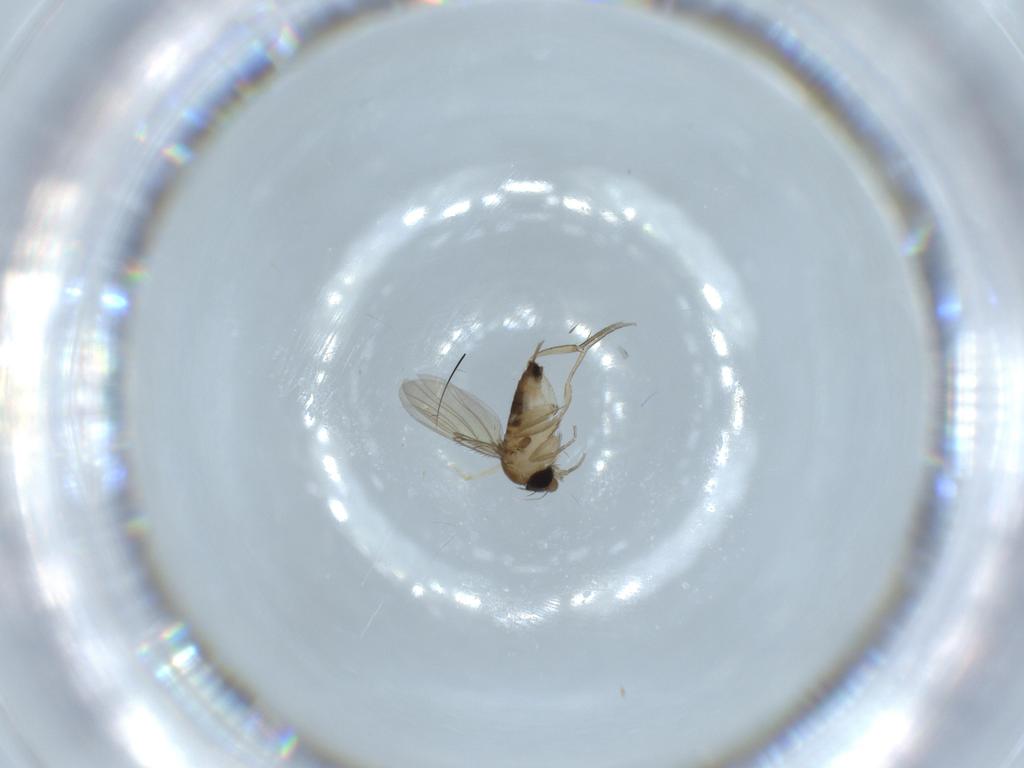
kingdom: Animalia
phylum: Arthropoda
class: Insecta
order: Diptera
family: Phoridae
